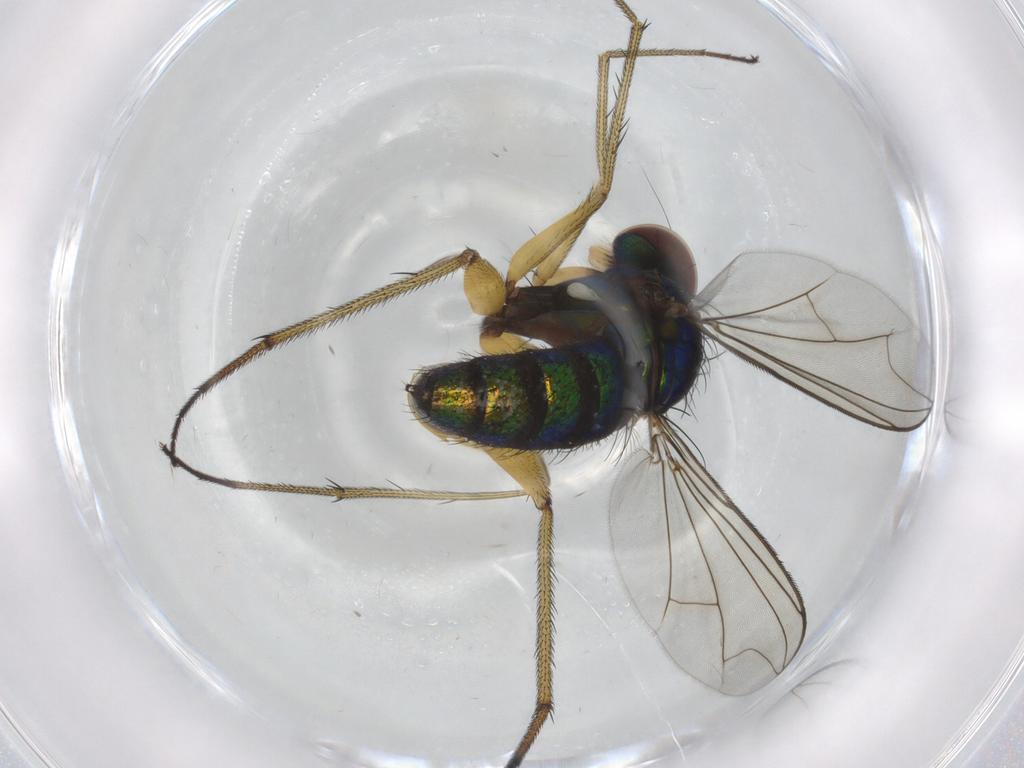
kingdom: Animalia
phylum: Arthropoda
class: Insecta
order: Diptera
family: Dolichopodidae
